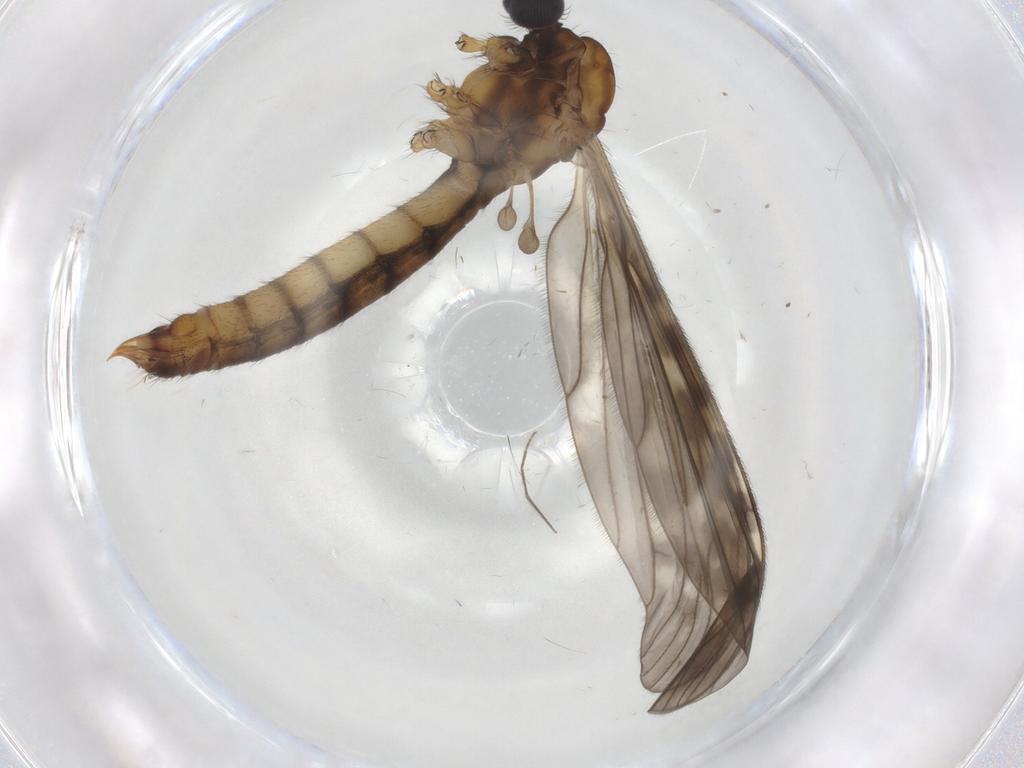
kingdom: Animalia
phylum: Arthropoda
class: Insecta
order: Diptera
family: Dolichopodidae
